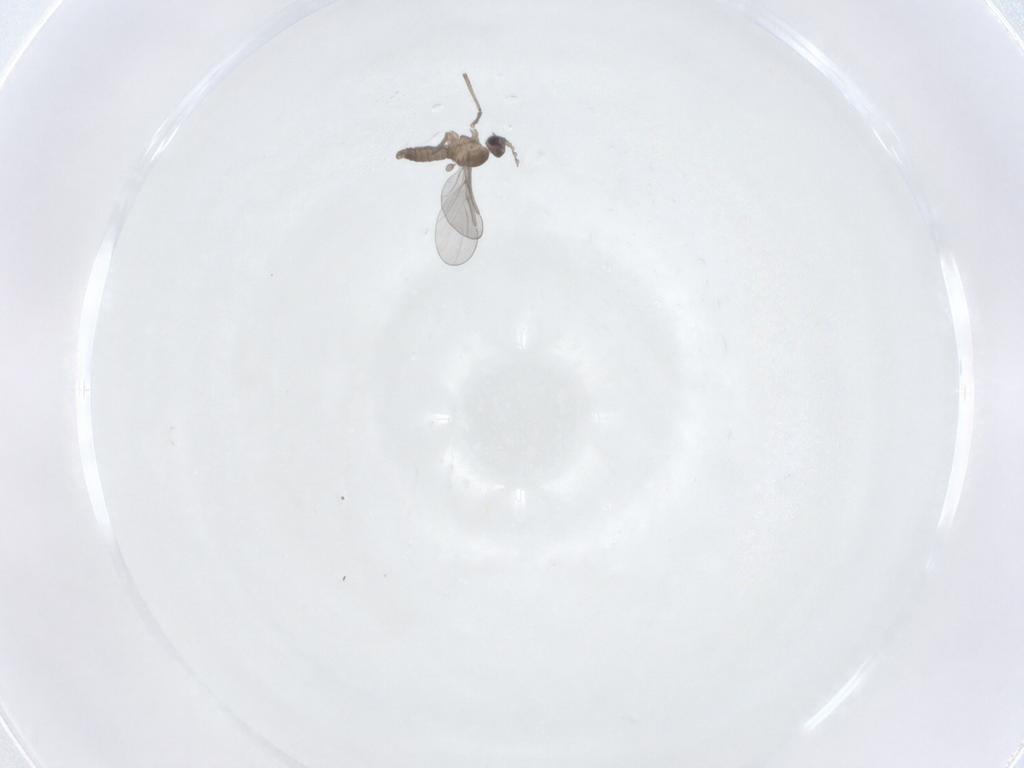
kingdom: Animalia
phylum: Arthropoda
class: Insecta
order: Diptera
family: Cecidomyiidae
